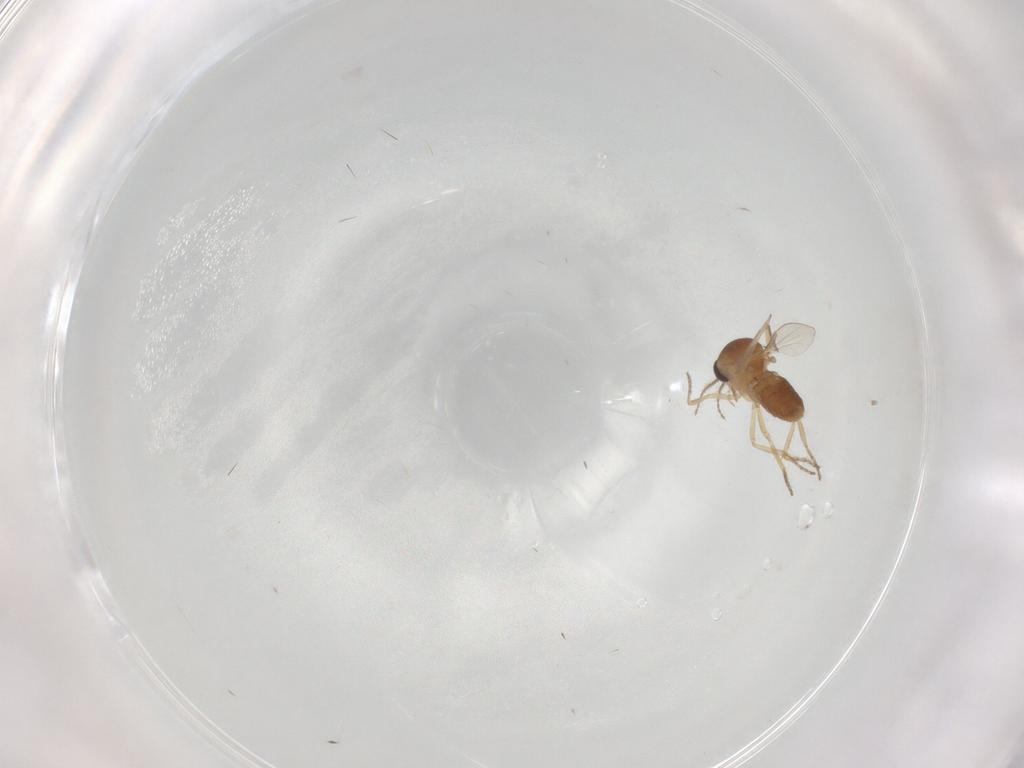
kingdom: Animalia
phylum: Arthropoda
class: Insecta
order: Diptera
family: Ceratopogonidae
